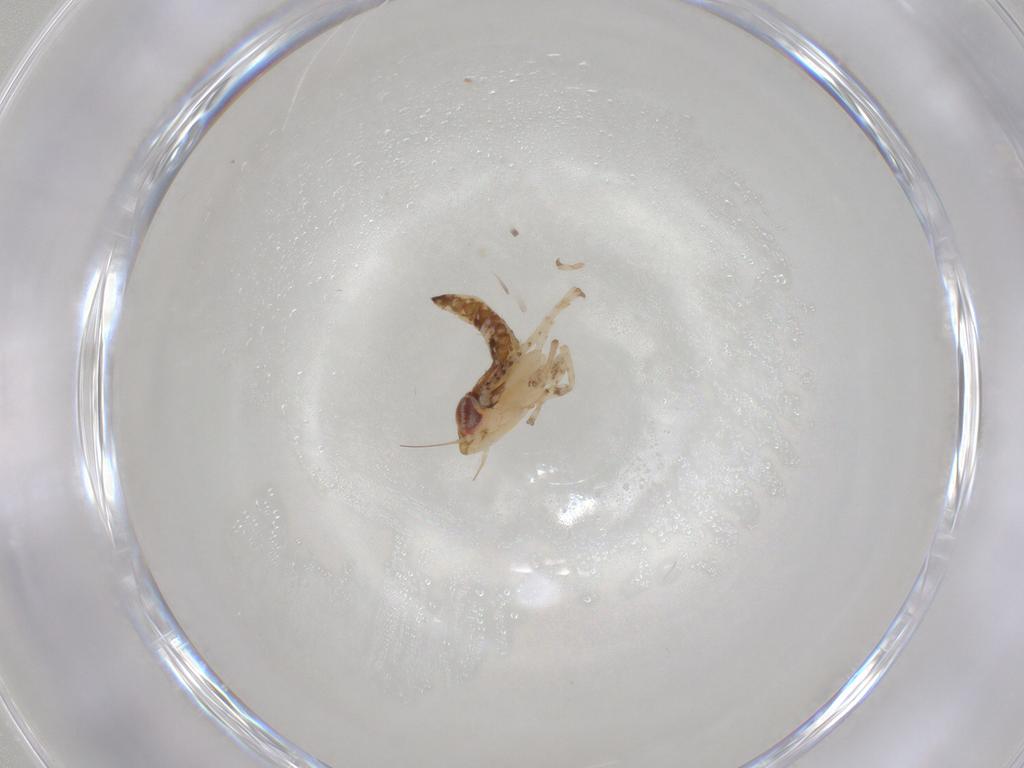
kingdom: Animalia
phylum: Arthropoda
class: Insecta
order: Hemiptera
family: Cicadellidae
